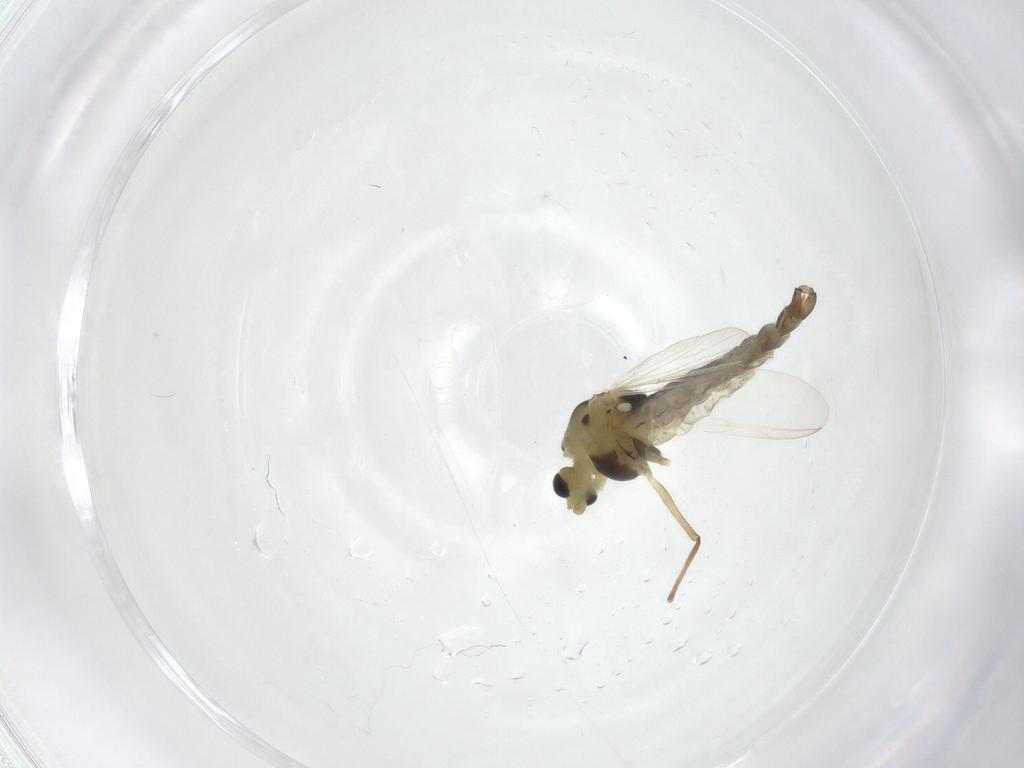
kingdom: Animalia
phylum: Arthropoda
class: Insecta
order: Diptera
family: Chironomidae
